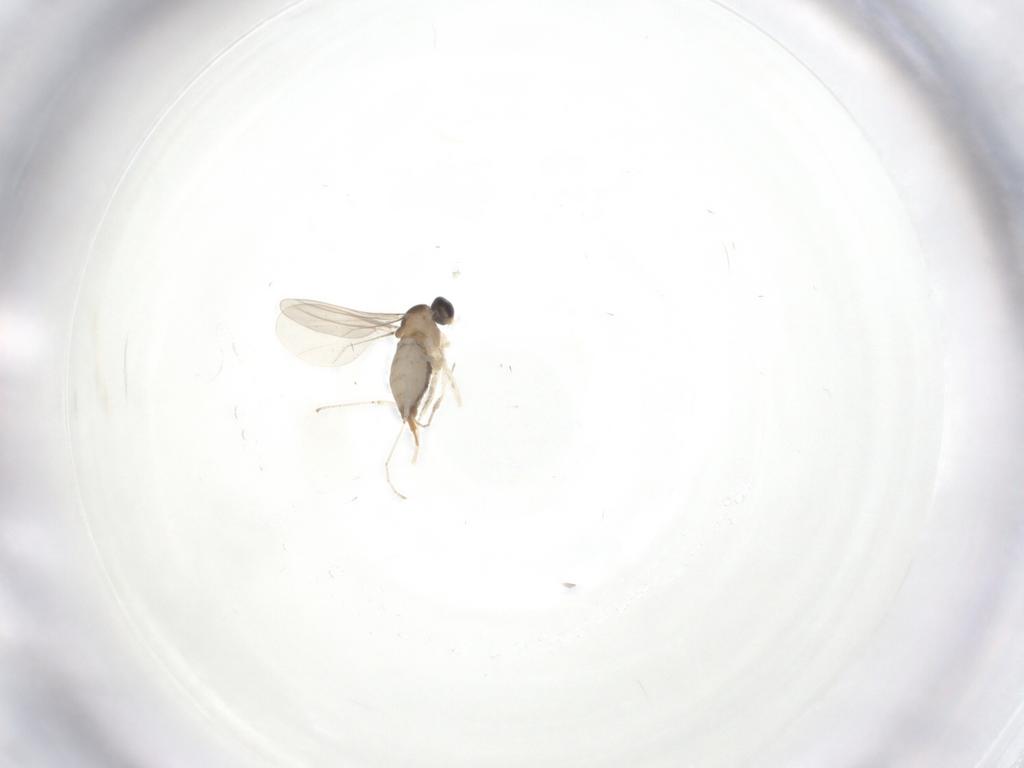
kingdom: Animalia
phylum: Arthropoda
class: Insecta
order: Diptera
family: Cecidomyiidae
